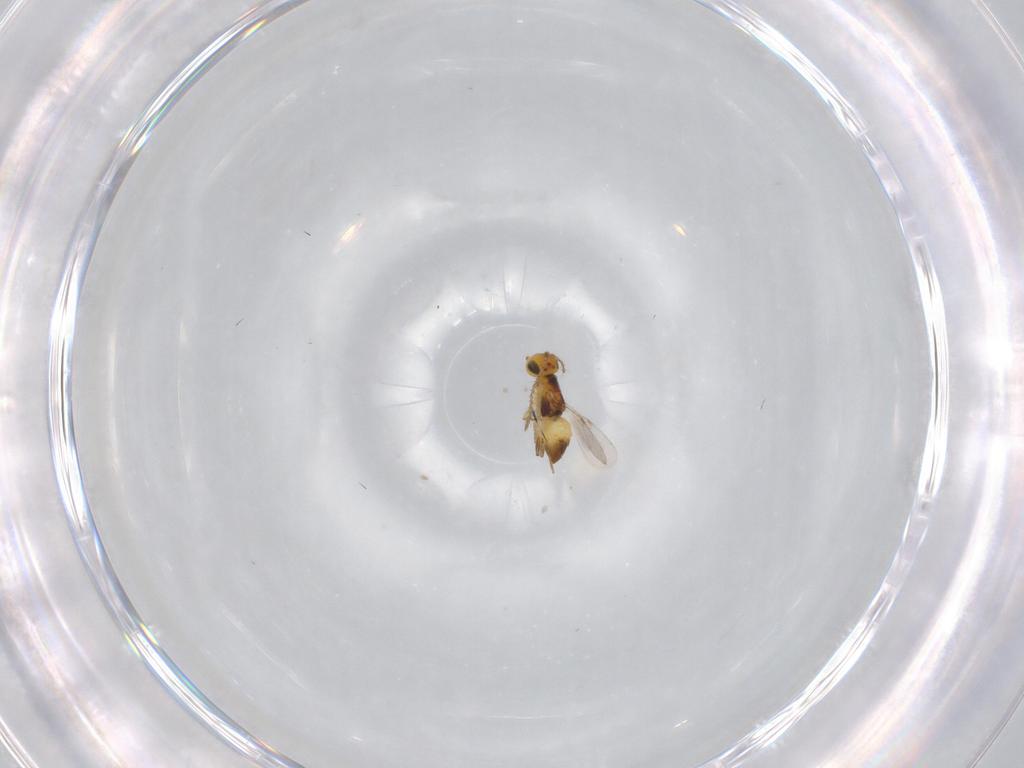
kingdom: Animalia
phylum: Arthropoda
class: Insecta
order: Hymenoptera
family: Encyrtidae
